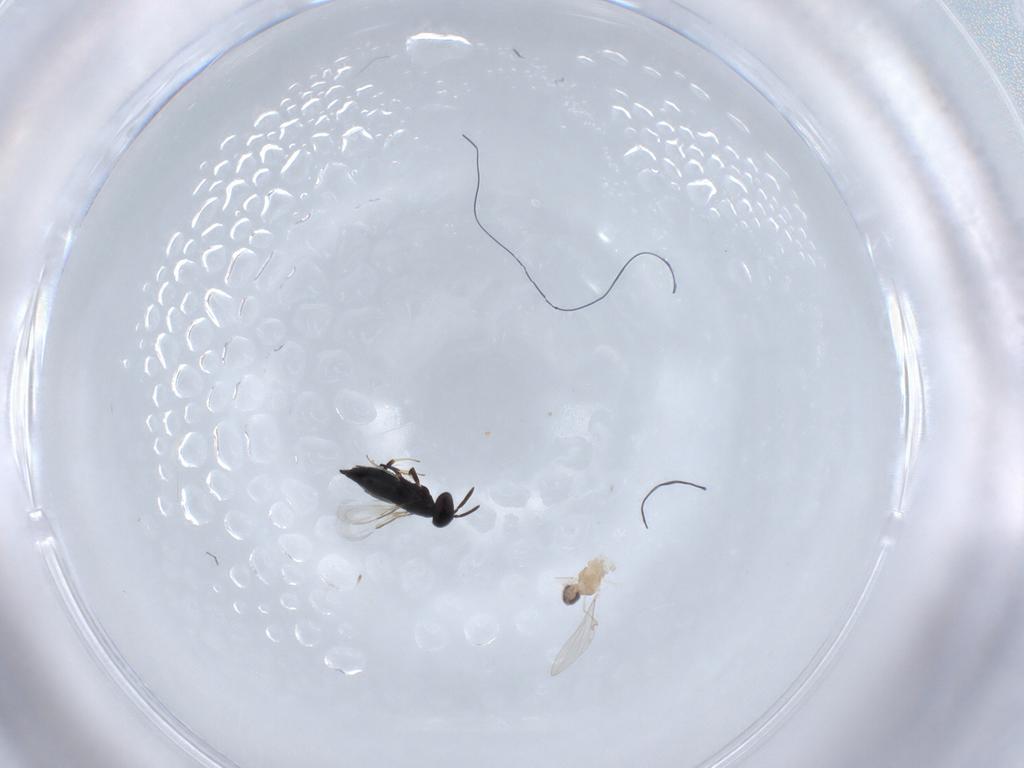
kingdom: Animalia
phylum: Arthropoda
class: Insecta
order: Diptera
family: Cecidomyiidae
